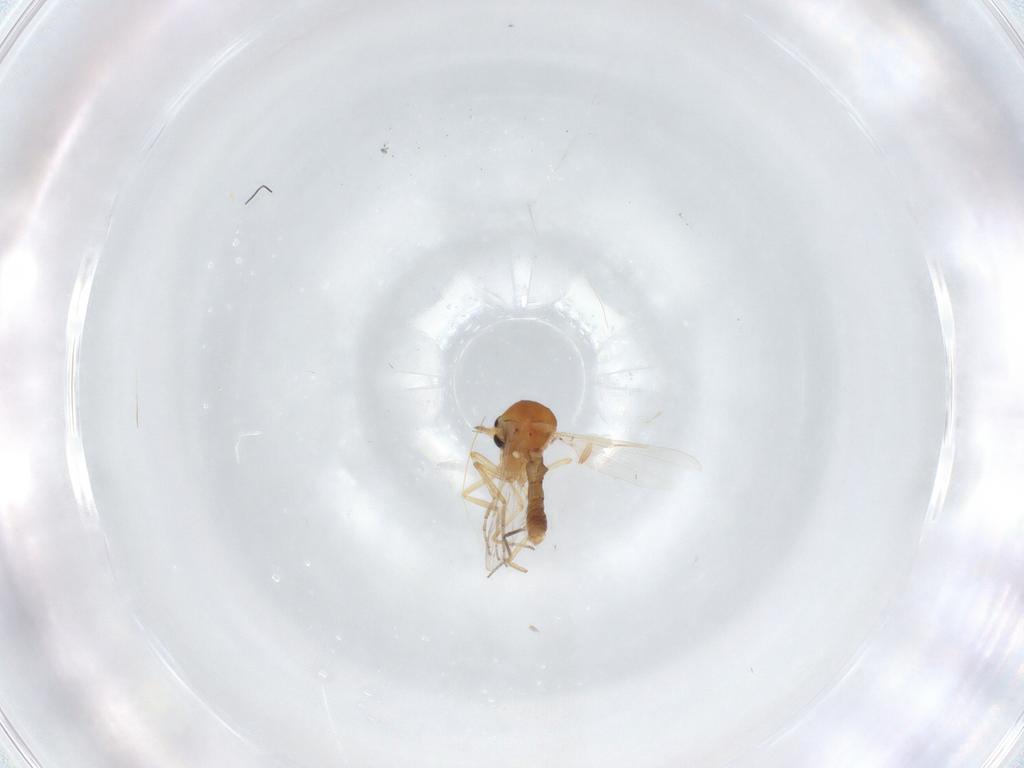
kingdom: Animalia
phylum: Arthropoda
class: Insecta
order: Diptera
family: Ceratopogonidae
